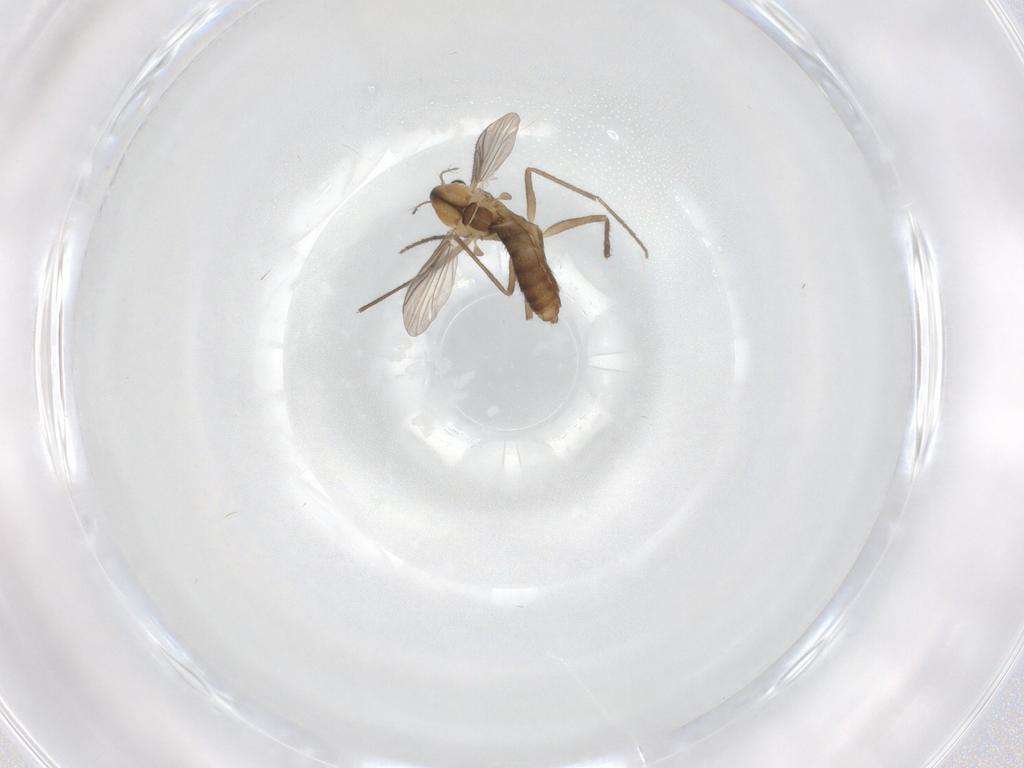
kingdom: Animalia
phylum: Arthropoda
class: Insecta
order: Diptera
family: Chironomidae
